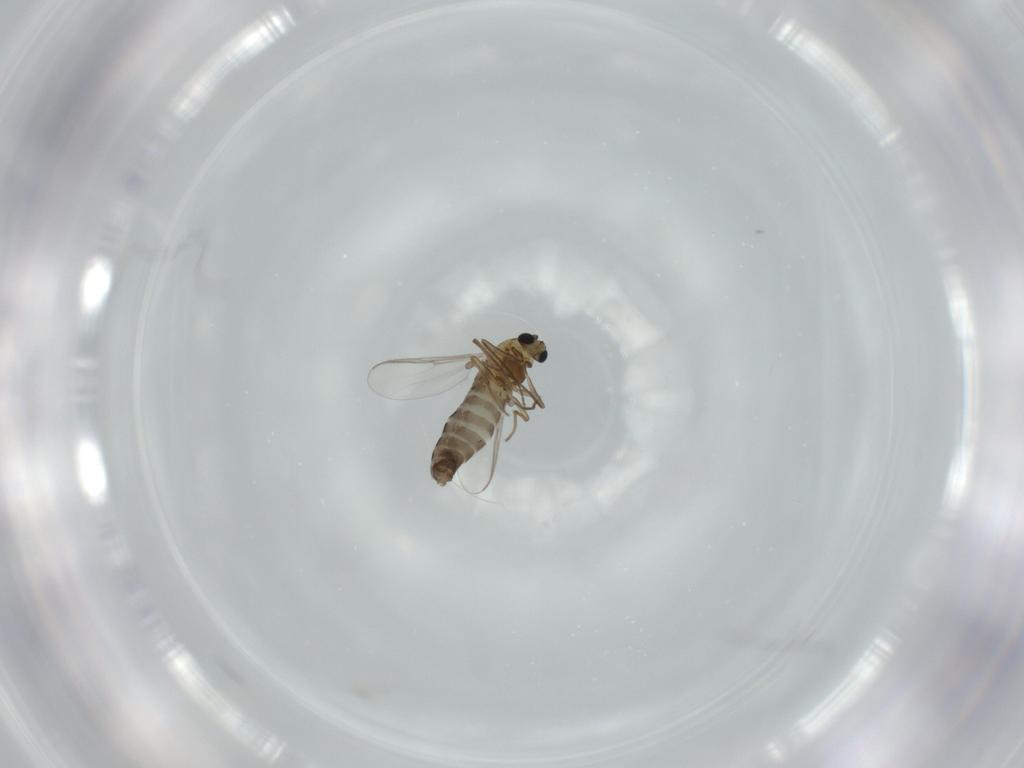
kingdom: Animalia
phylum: Arthropoda
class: Insecta
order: Diptera
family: Chironomidae
